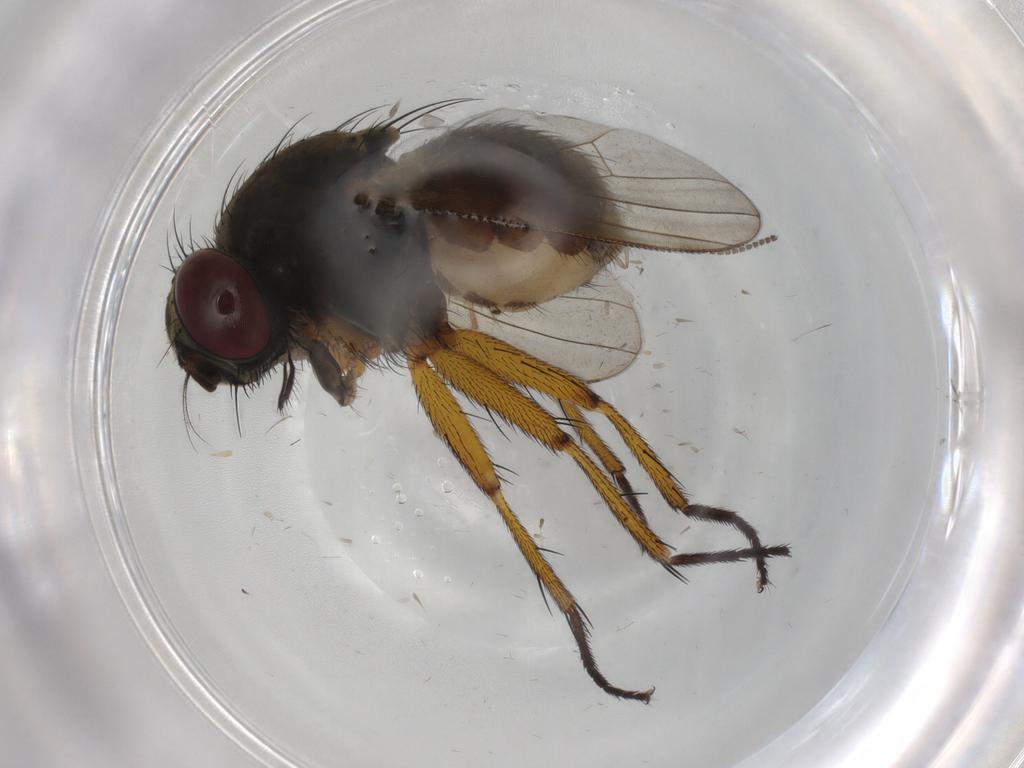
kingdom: Animalia
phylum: Arthropoda
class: Insecta
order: Diptera
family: Muscidae
